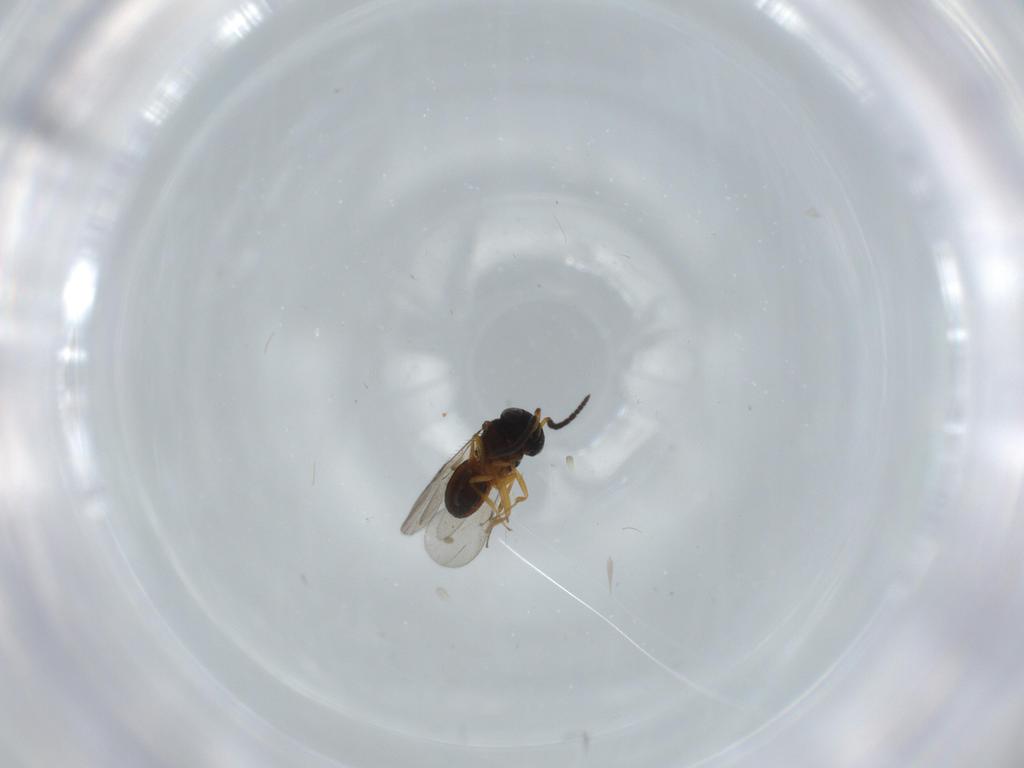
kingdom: Animalia
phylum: Arthropoda
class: Insecta
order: Hymenoptera
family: Scelionidae
